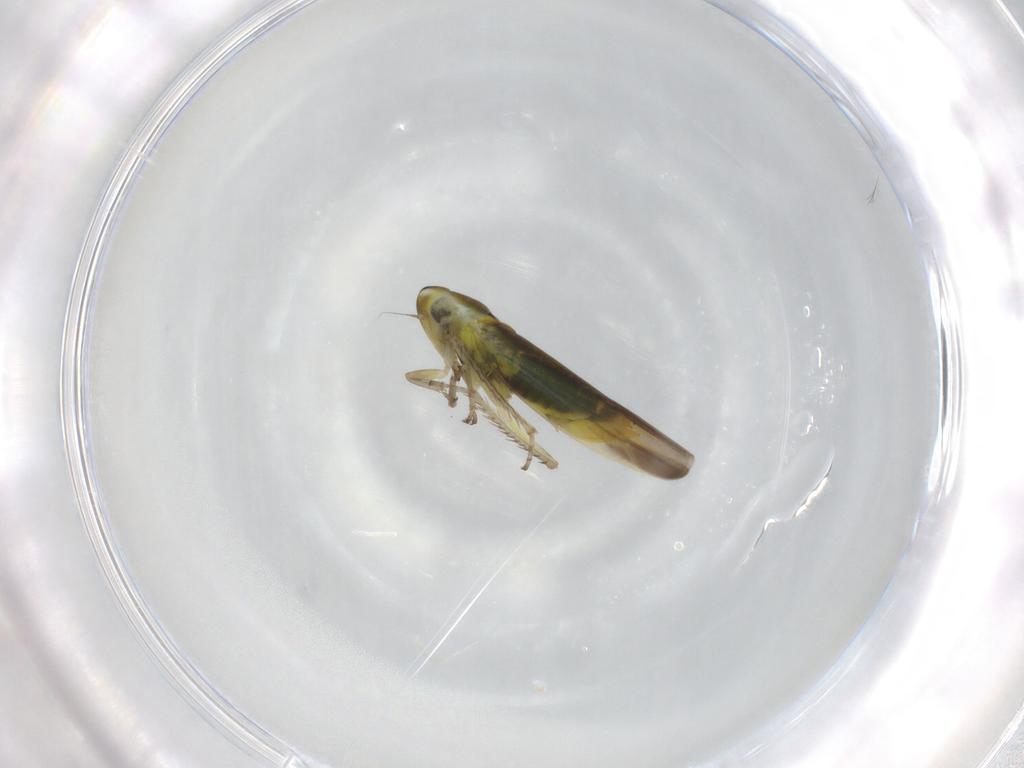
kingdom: Animalia
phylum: Arthropoda
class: Insecta
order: Hemiptera
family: Cicadellidae
